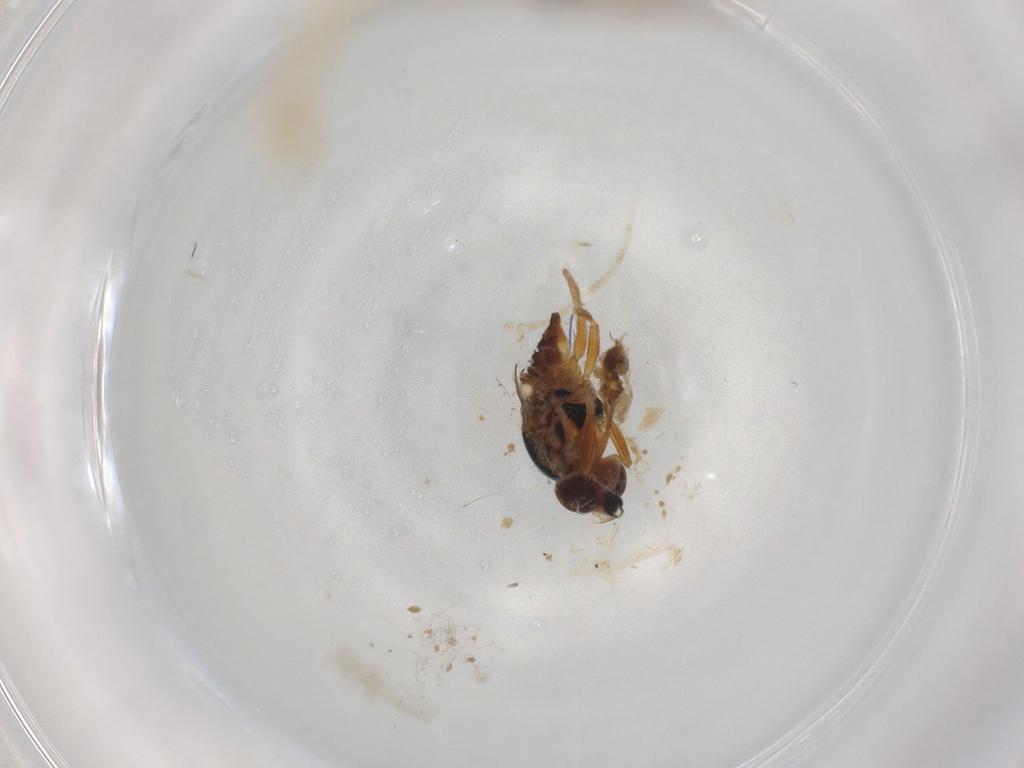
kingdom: Animalia
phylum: Arthropoda
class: Insecta
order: Diptera
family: Chloropidae
